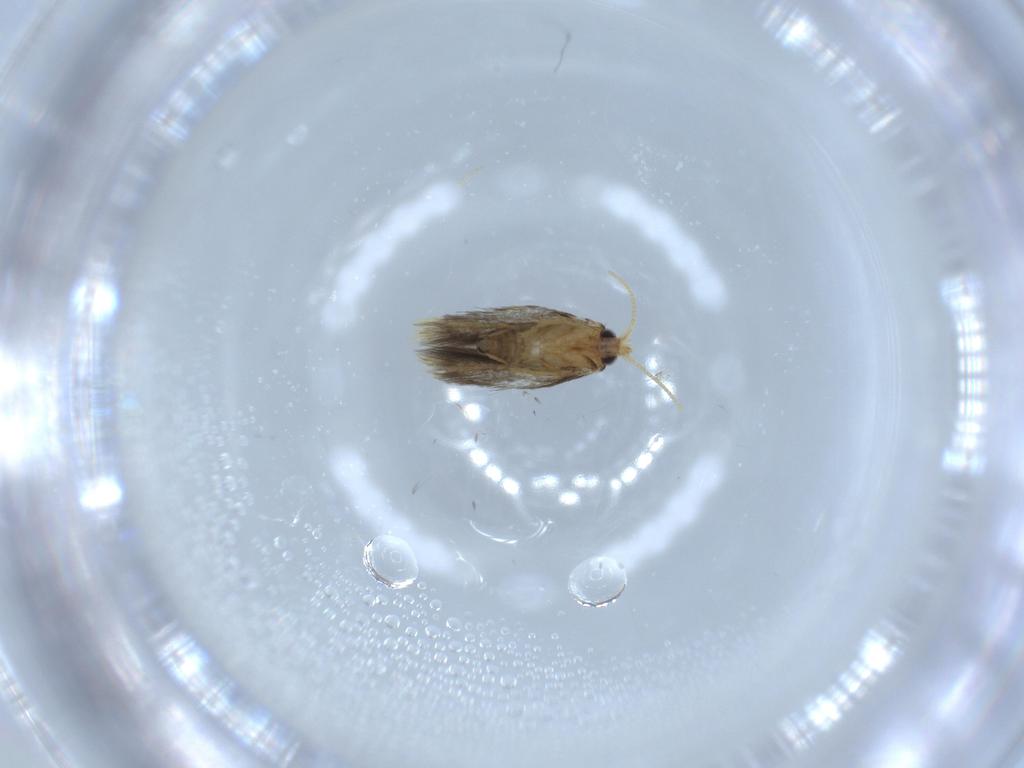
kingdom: Animalia
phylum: Arthropoda
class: Insecta
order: Lepidoptera
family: Copromorphidae
